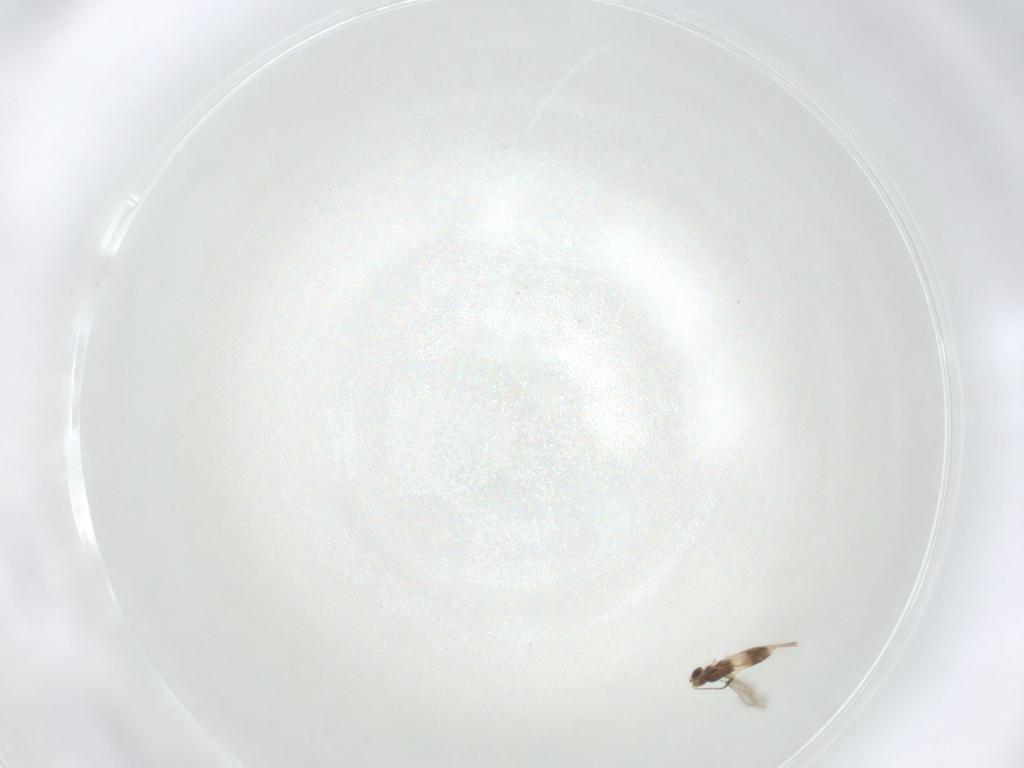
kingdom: Animalia
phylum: Arthropoda
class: Insecta
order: Hymenoptera
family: Mymaridae
